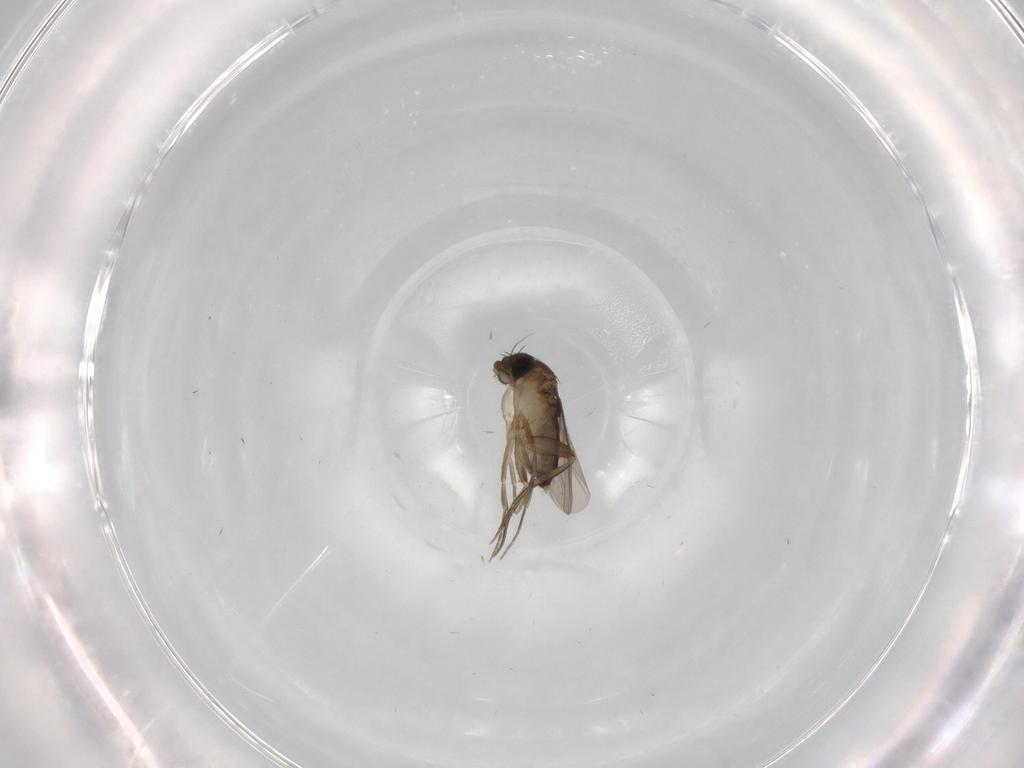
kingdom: Animalia
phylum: Arthropoda
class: Insecta
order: Diptera
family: Phoridae
